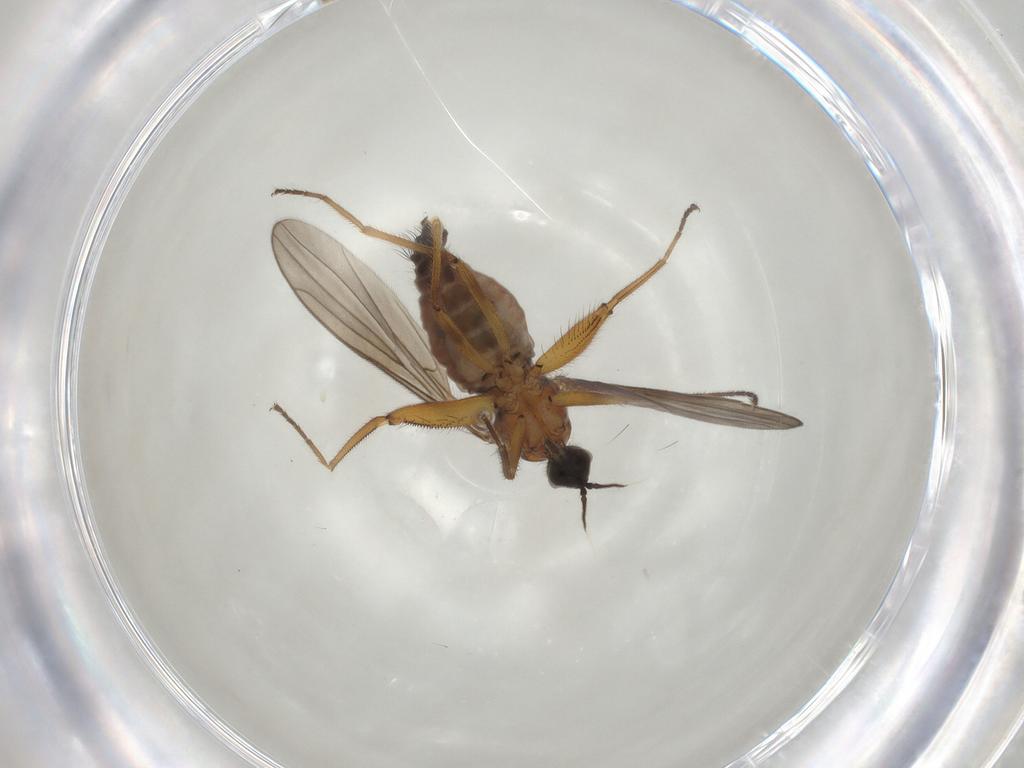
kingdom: Animalia
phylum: Arthropoda
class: Insecta
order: Diptera
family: Hybotidae
